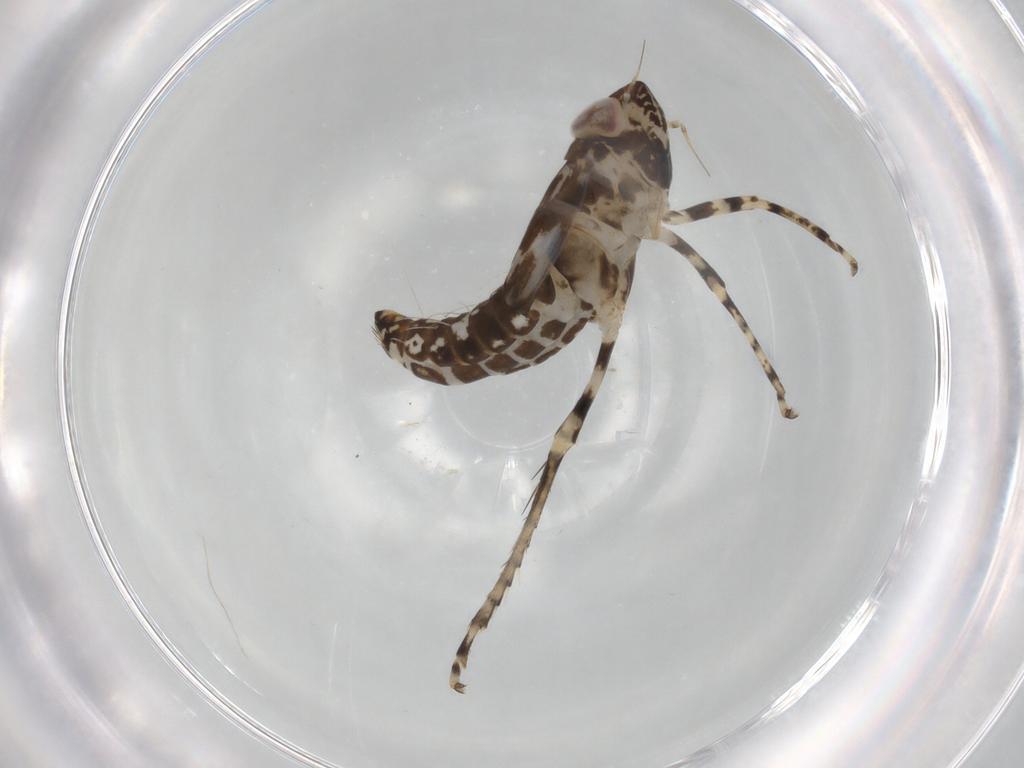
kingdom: Animalia
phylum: Arthropoda
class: Insecta
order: Hemiptera
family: Cicadellidae
